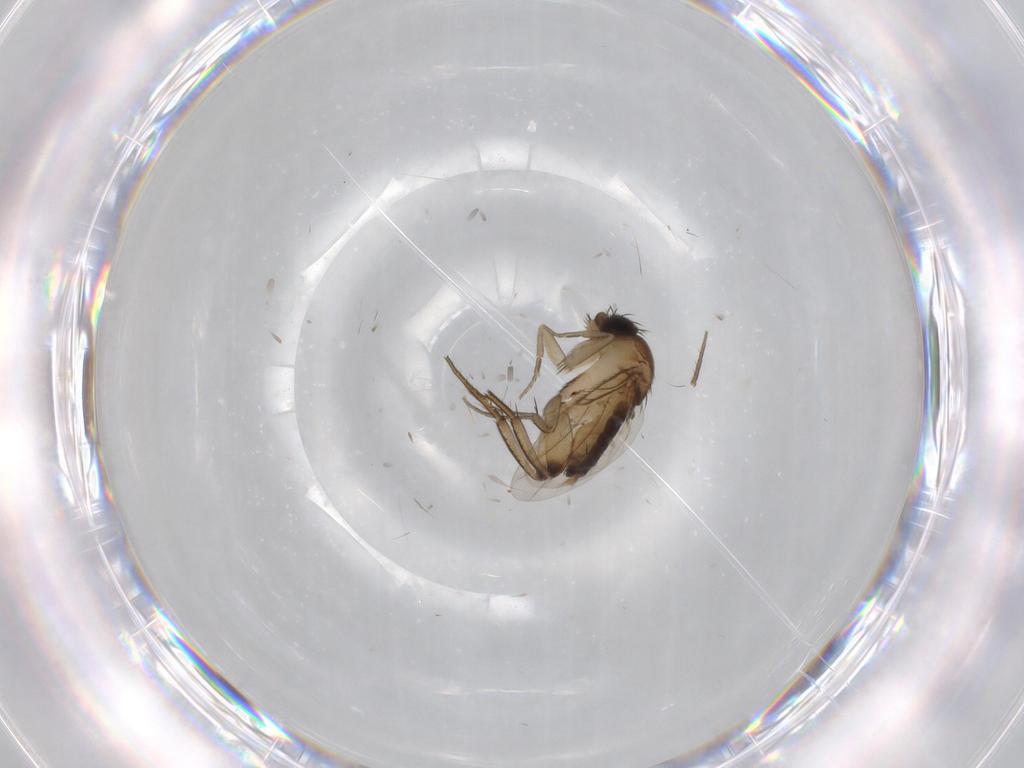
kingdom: Animalia
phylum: Arthropoda
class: Insecta
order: Diptera
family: Phoridae
